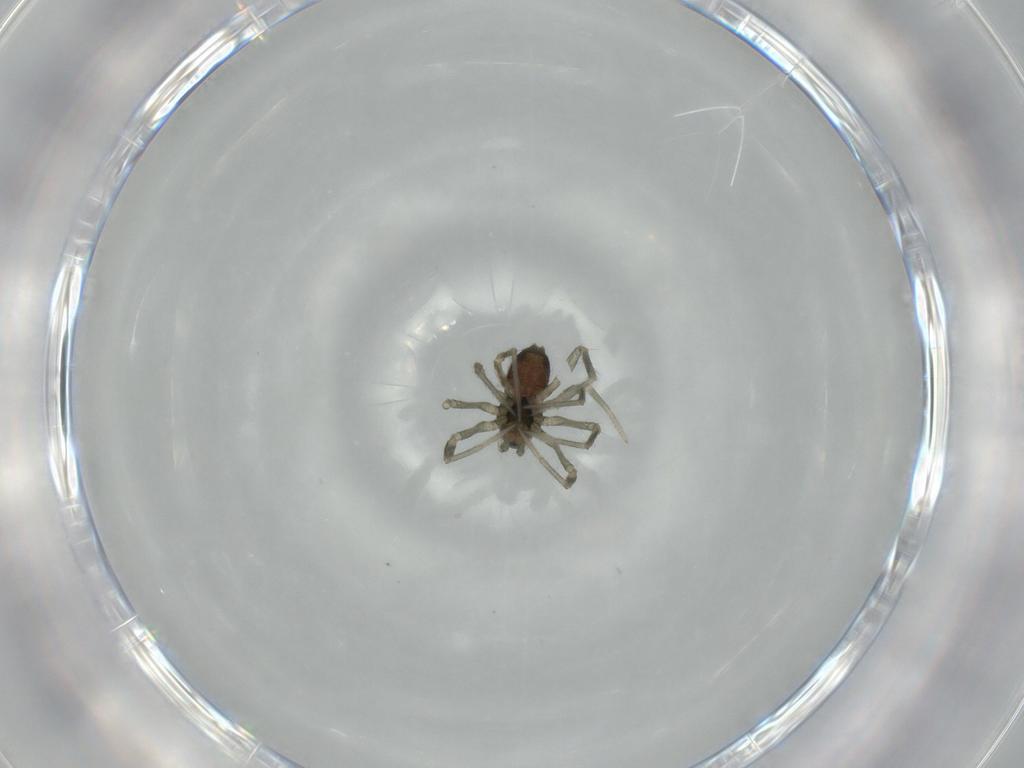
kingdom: Animalia
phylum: Arthropoda
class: Arachnida
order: Araneae
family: Linyphiidae
